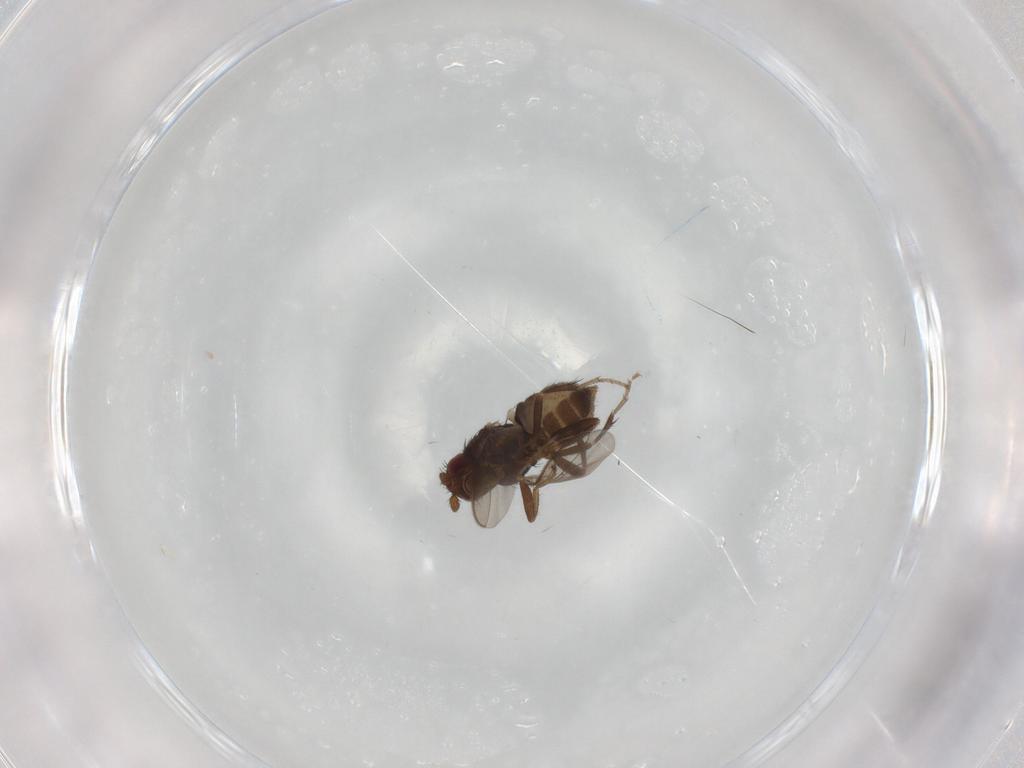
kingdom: Animalia
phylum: Arthropoda
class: Insecta
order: Diptera
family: Sphaeroceridae
